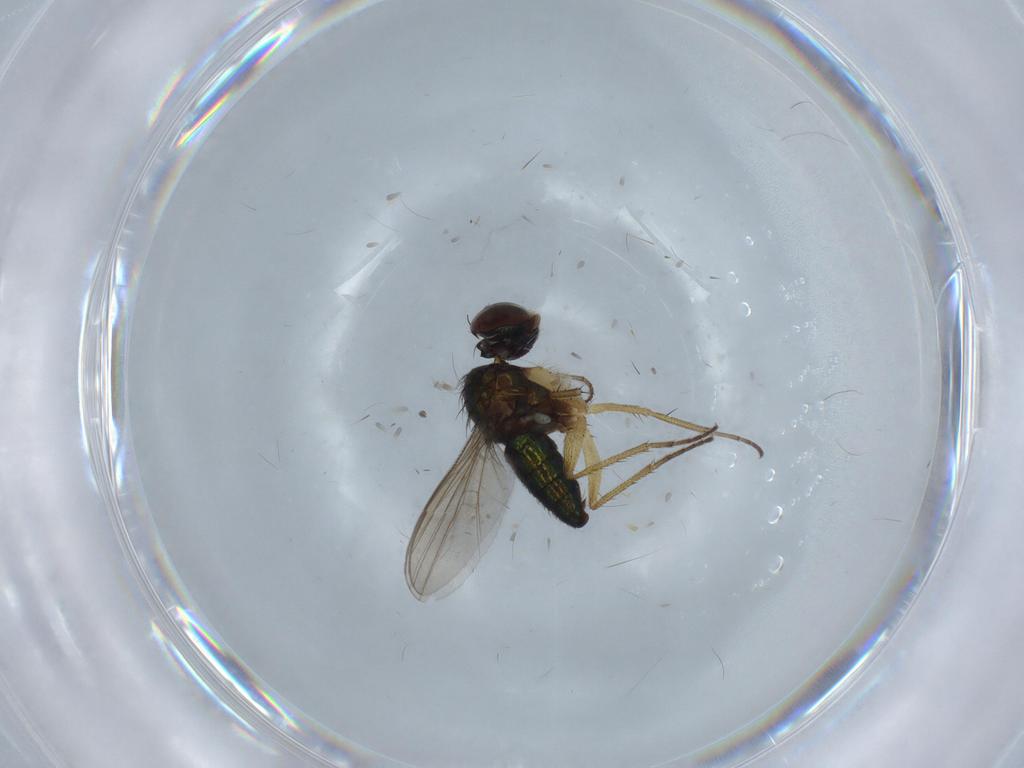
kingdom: Animalia
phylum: Arthropoda
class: Insecta
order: Diptera
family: Dolichopodidae
